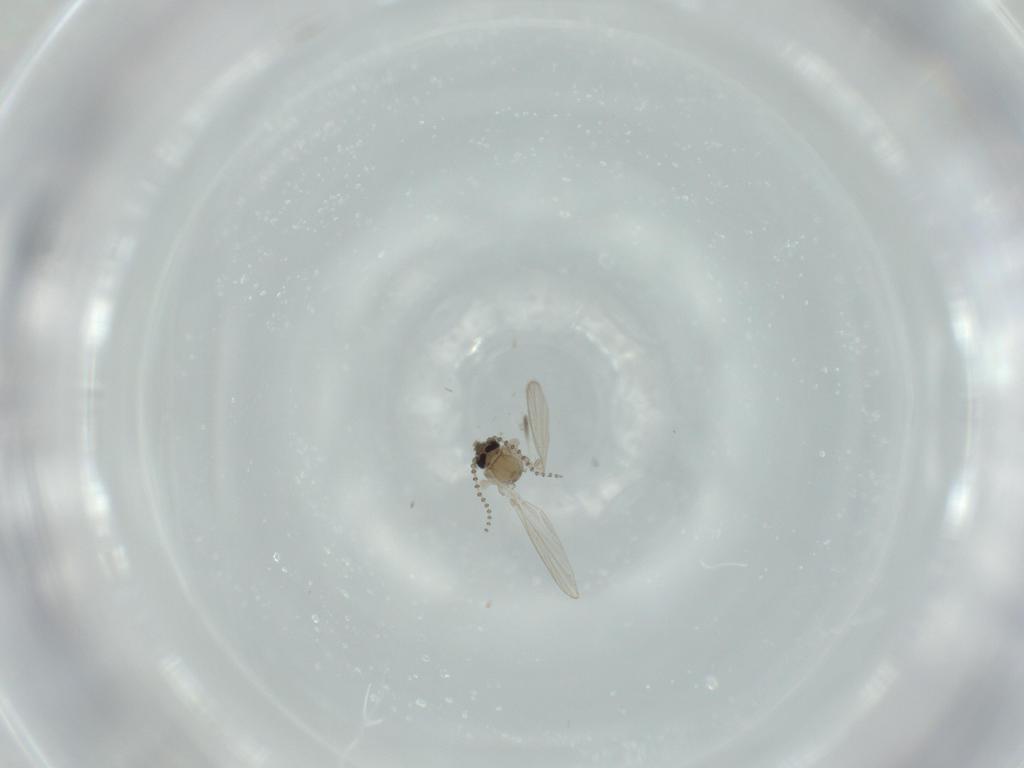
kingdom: Animalia
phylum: Arthropoda
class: Insecta
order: Diptera
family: Psychodidae
